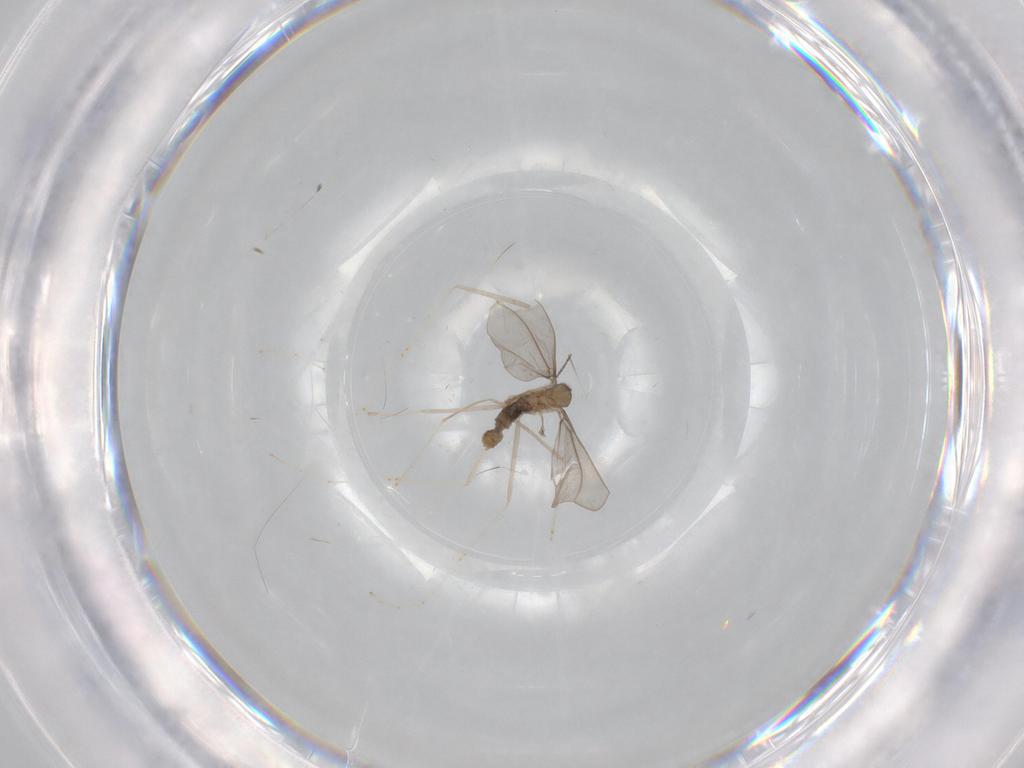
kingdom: Animalia
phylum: Arthropoda
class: Insecta
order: Diptera
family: Cecidomyiidae
